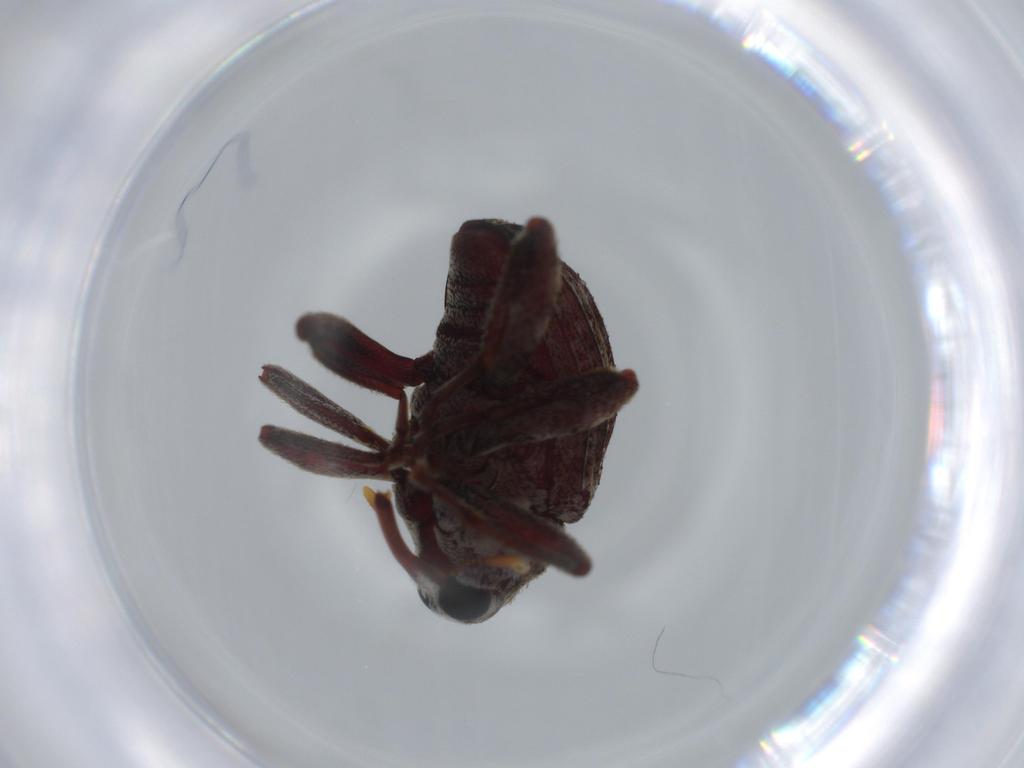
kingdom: Animalia
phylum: Arthropoda
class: Insecta
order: Coleoptera
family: Curculionidae
